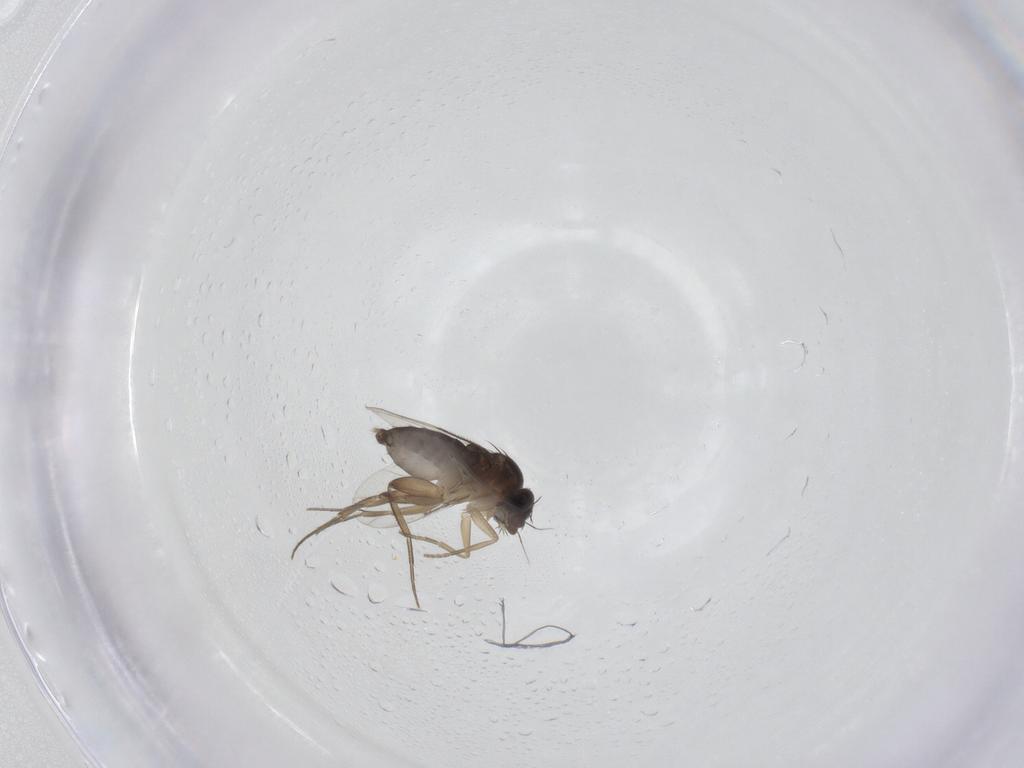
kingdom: Animalia
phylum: Arthropoda
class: Insecta
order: Diptera
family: Phoridae
